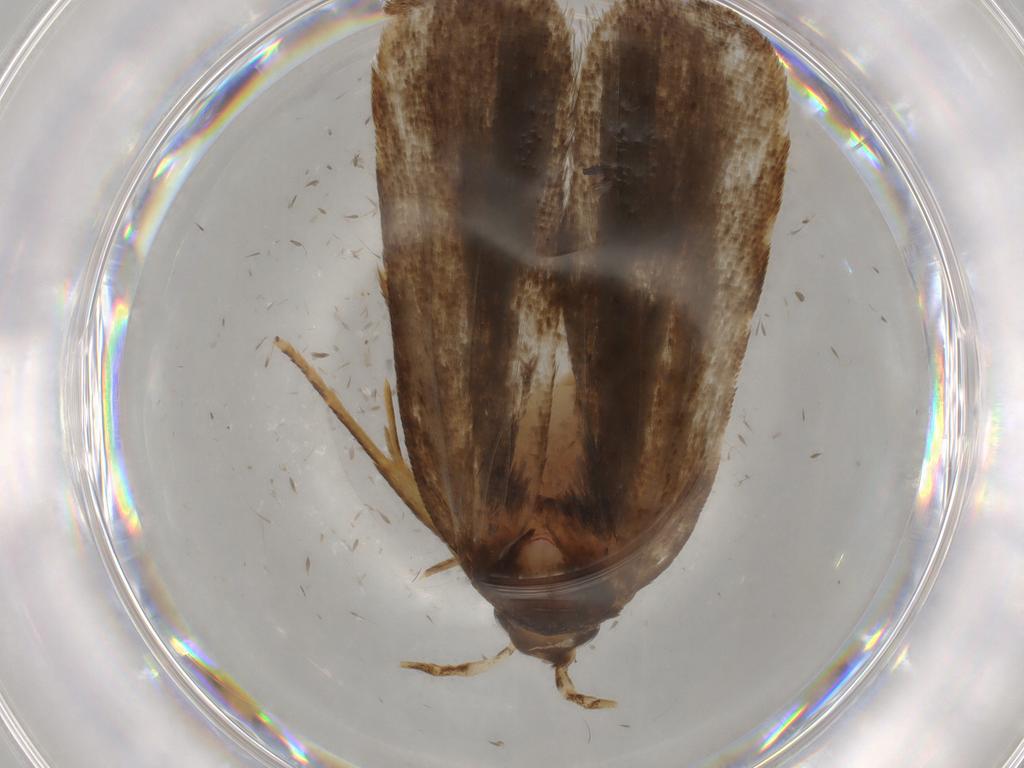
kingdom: Animalia
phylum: Arthropoda
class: Insecta
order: Lepidoptera
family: Autostichidae
